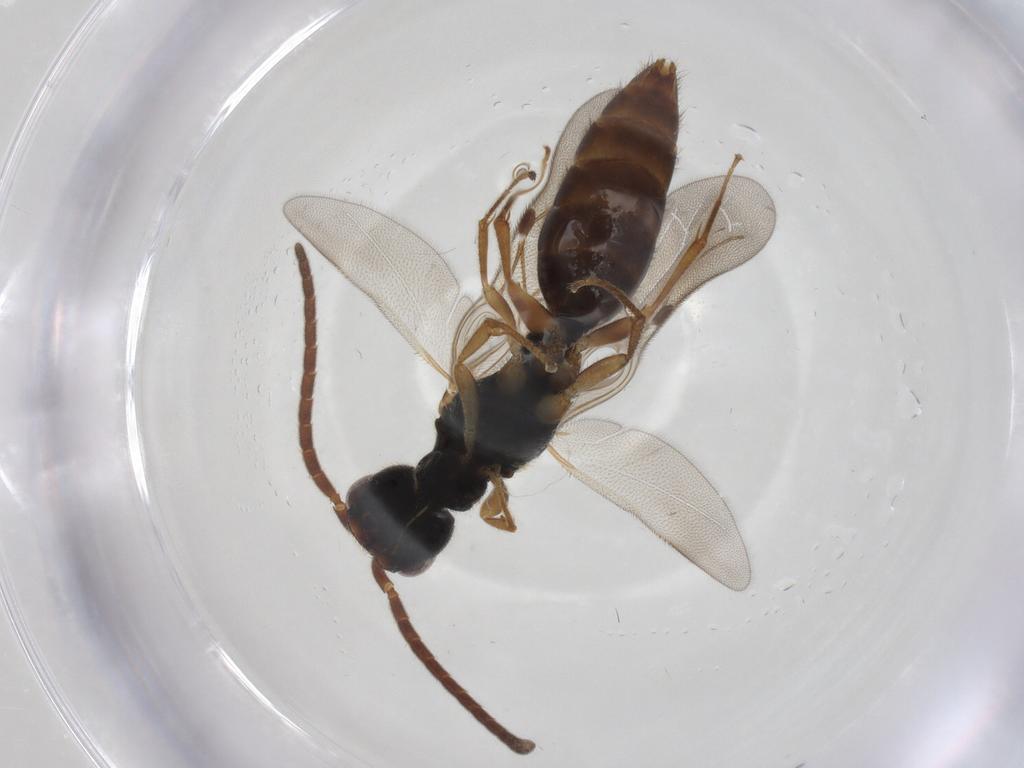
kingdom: Animalia
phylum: Arthropoda
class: Insecta
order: Hymenoptera
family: Bethylidae
